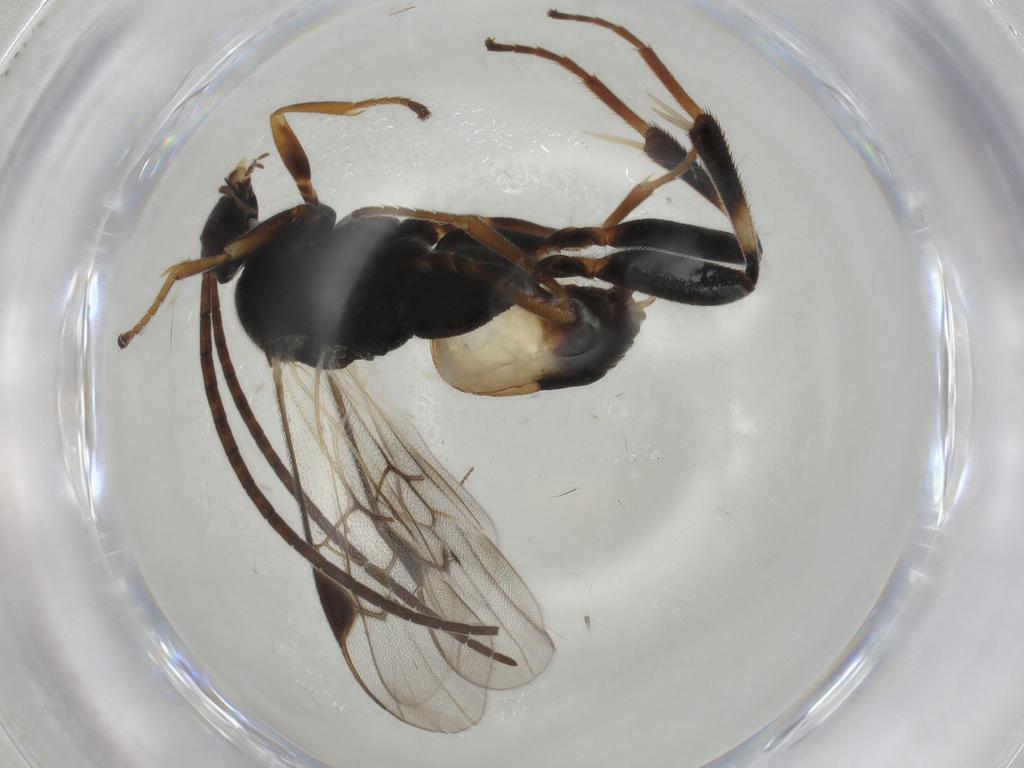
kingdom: Animalia
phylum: Arthropoda
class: Insecta
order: Hymenoptera
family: Braconidae
